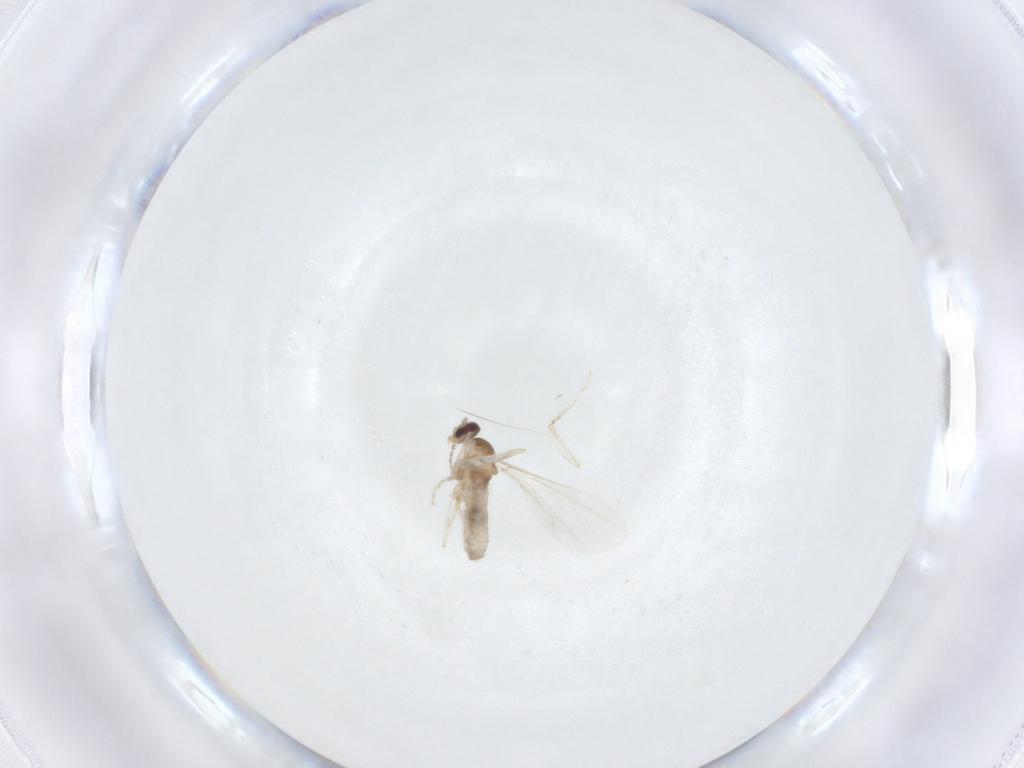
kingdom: Animalia
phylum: Arthropoda
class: Insecta
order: Diptera
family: Cecidomyiidae
